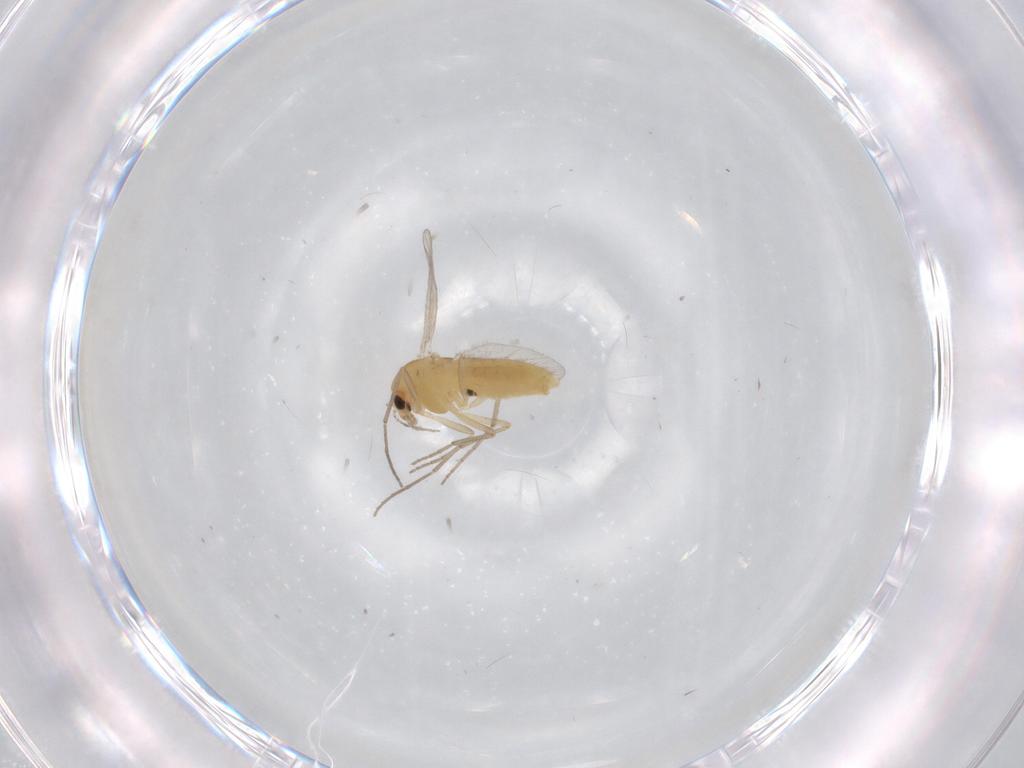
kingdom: Animalia
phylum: Arthropoda
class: Insecta
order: Diptera
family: Chironomidae
